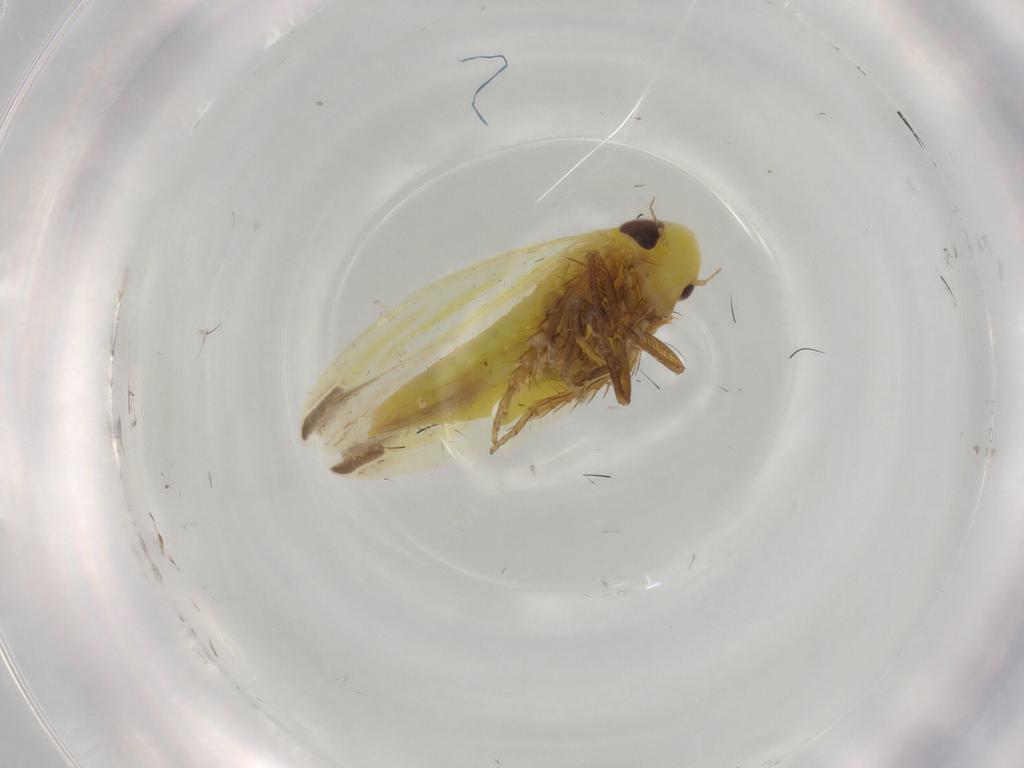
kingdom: Animalia
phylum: Arthropoda
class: Insecta
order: Hemiptera
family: Cicadellidae
